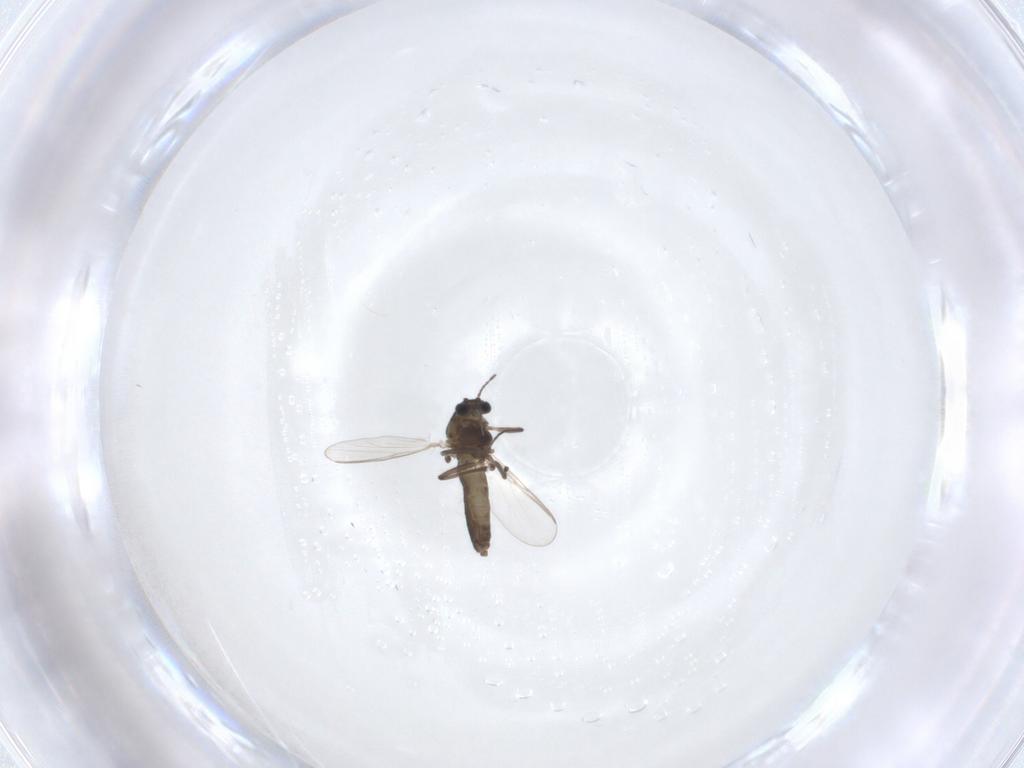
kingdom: Animalia
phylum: Arthropoda
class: Insecta
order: Diptera
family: Chironomidae
